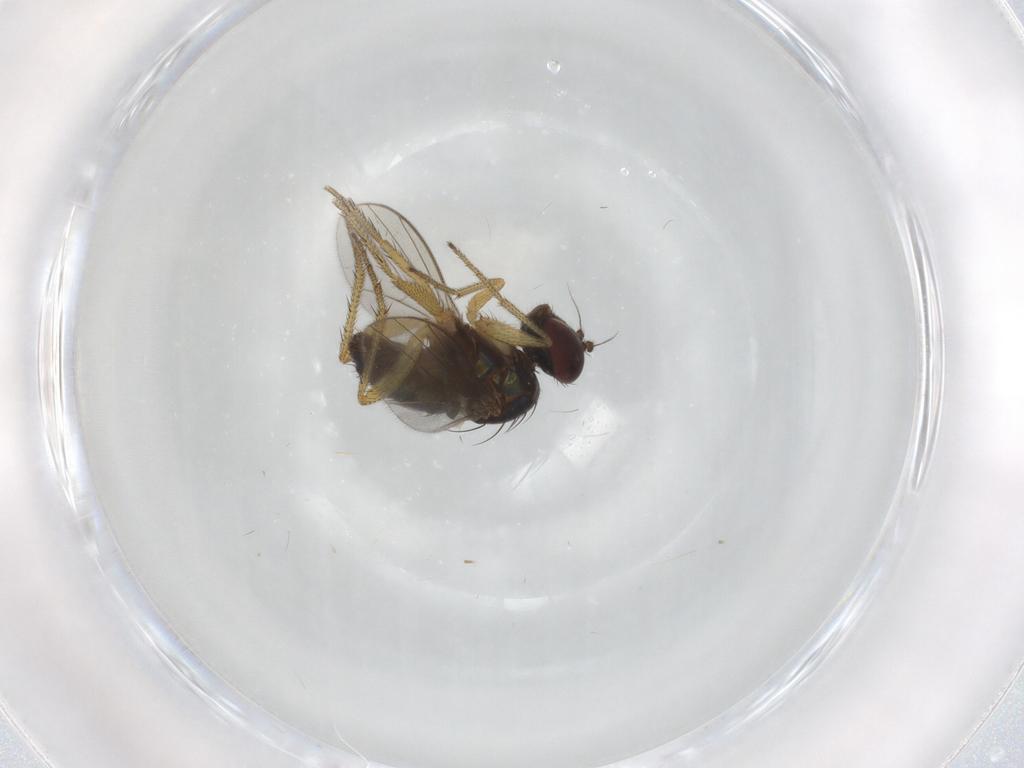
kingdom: Animalia
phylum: Arthropoda
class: Insecta
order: Diptera
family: Dolichopodidae
